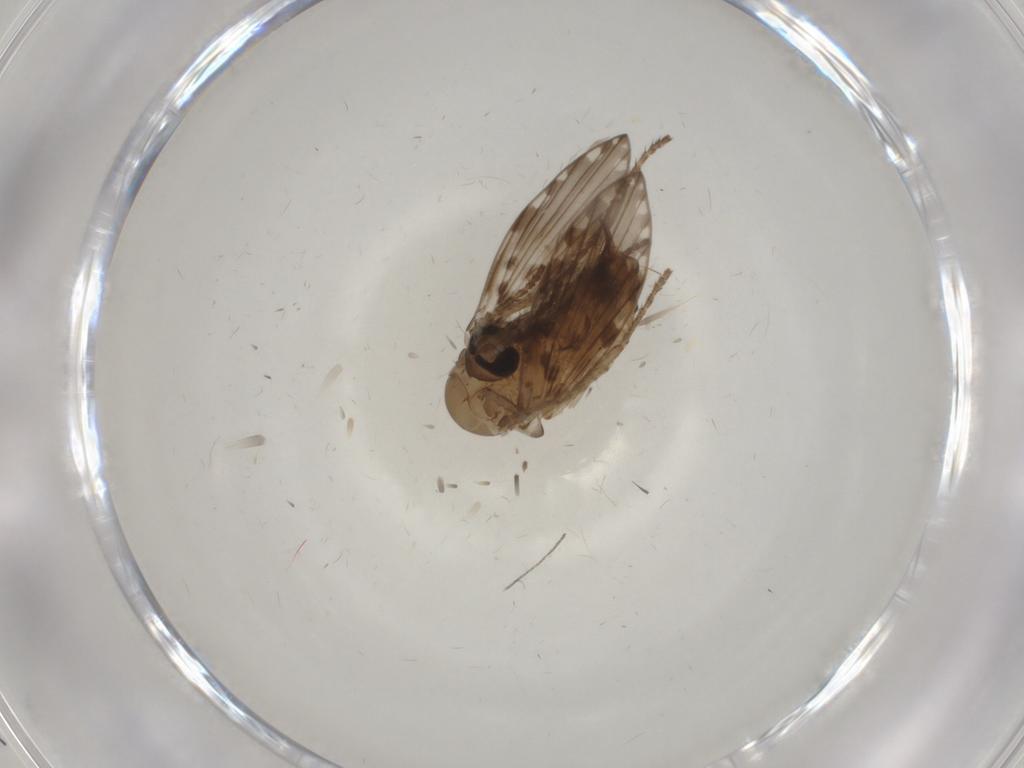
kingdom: Animalia
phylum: Arthropoda
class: Insecta
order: Diptera
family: Psychodidae
